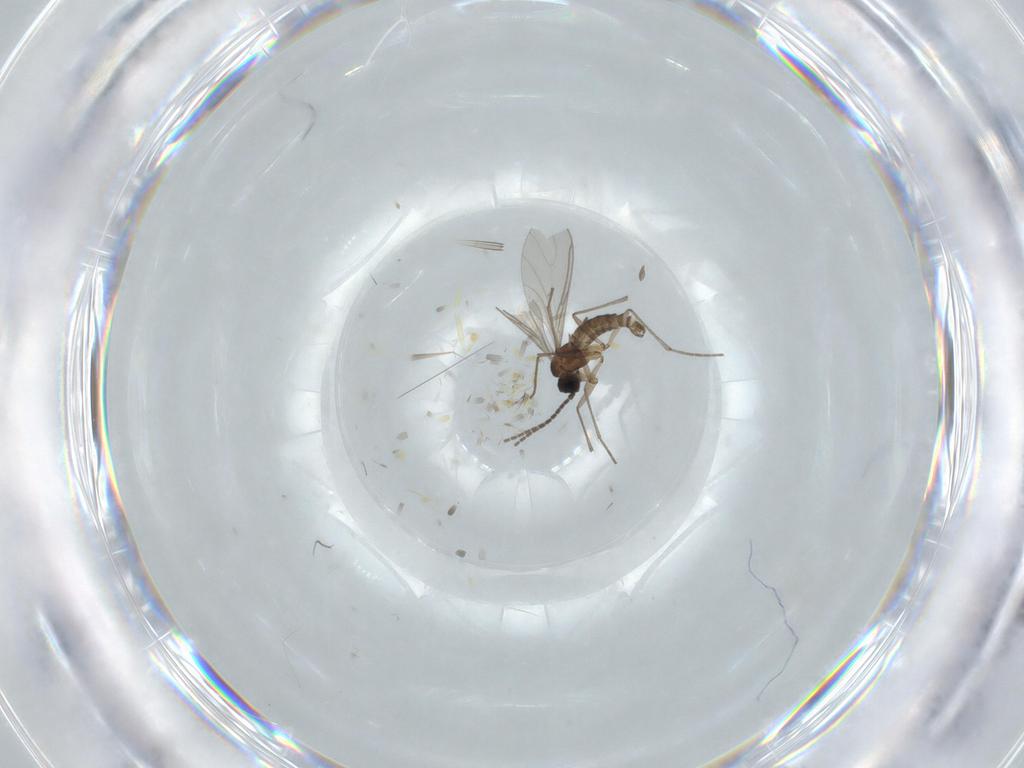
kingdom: Animalia
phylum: Arthropoda
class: Insecta
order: Diptera
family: Sciaridae
